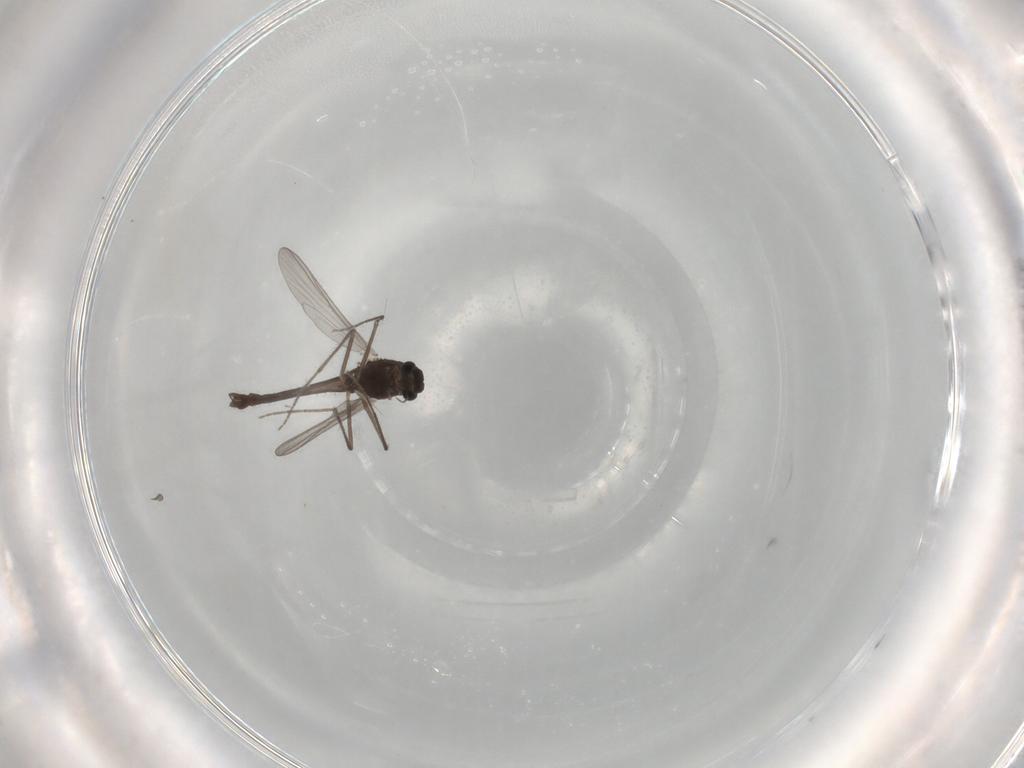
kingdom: Animalia
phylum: Arthropoda
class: Insecta
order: Diptera
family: Chironomidae
